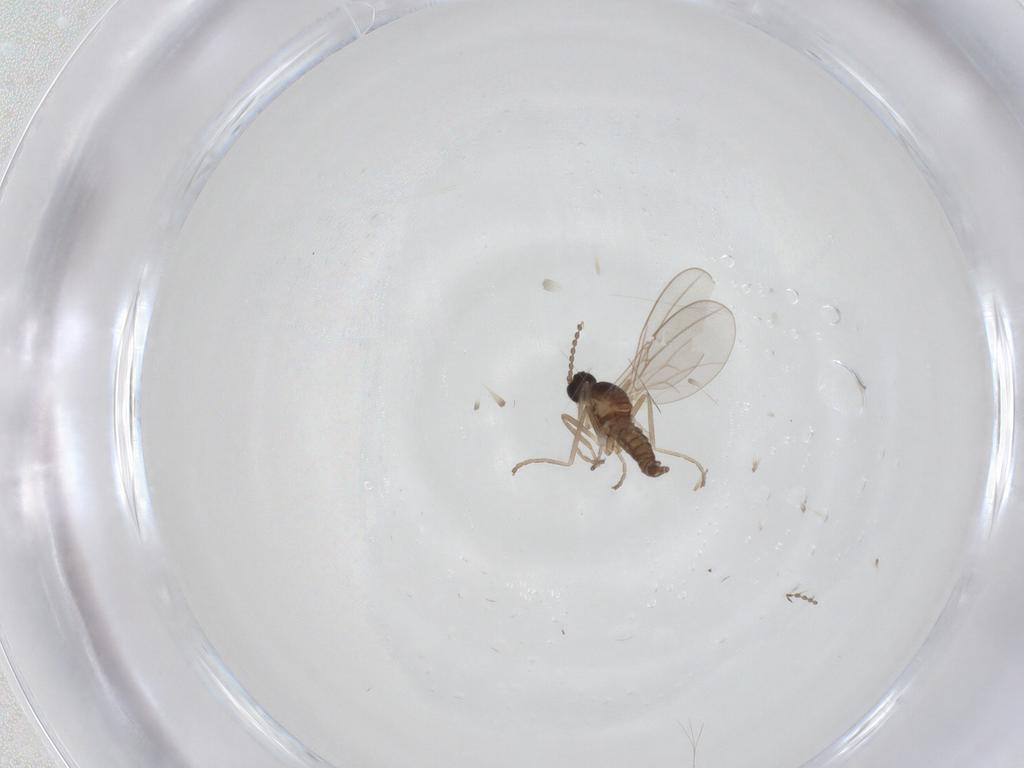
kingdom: Animalia
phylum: Arthropoda
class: Insecta
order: Diptera
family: Cecidomyiidae
